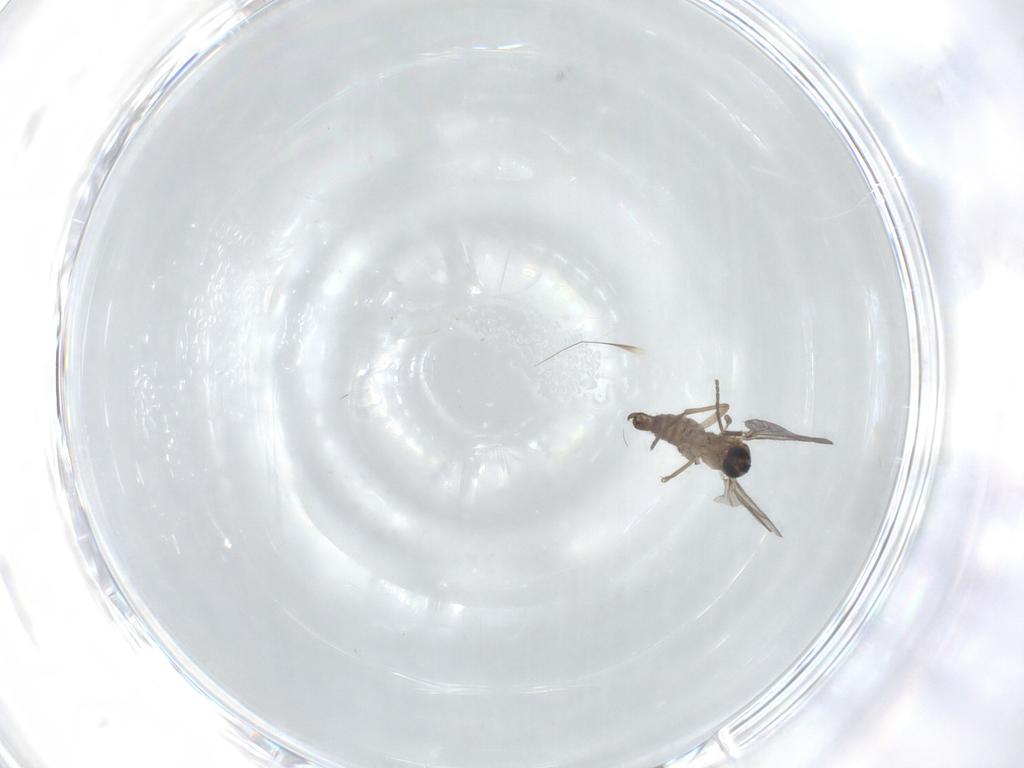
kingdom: Animalia
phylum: Arthropoda
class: Insecta
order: Diptera
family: Sciaridae
